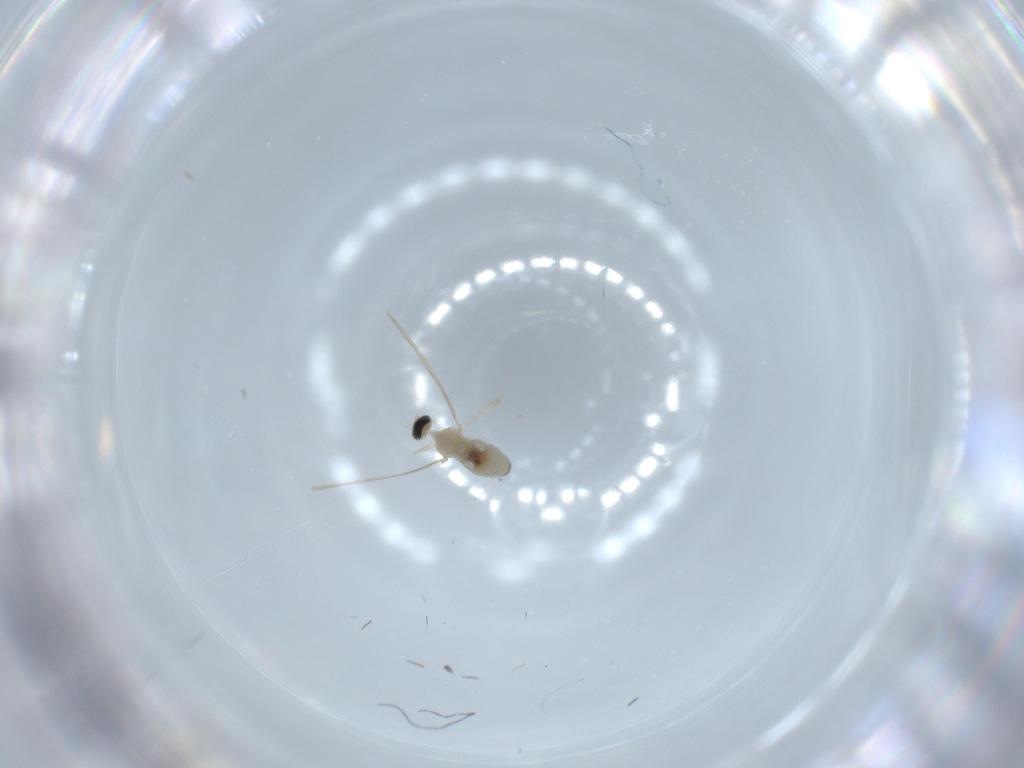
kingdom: Animalia
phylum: Arthropoda
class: Insecta
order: Diptera
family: Cecidomyiidae
